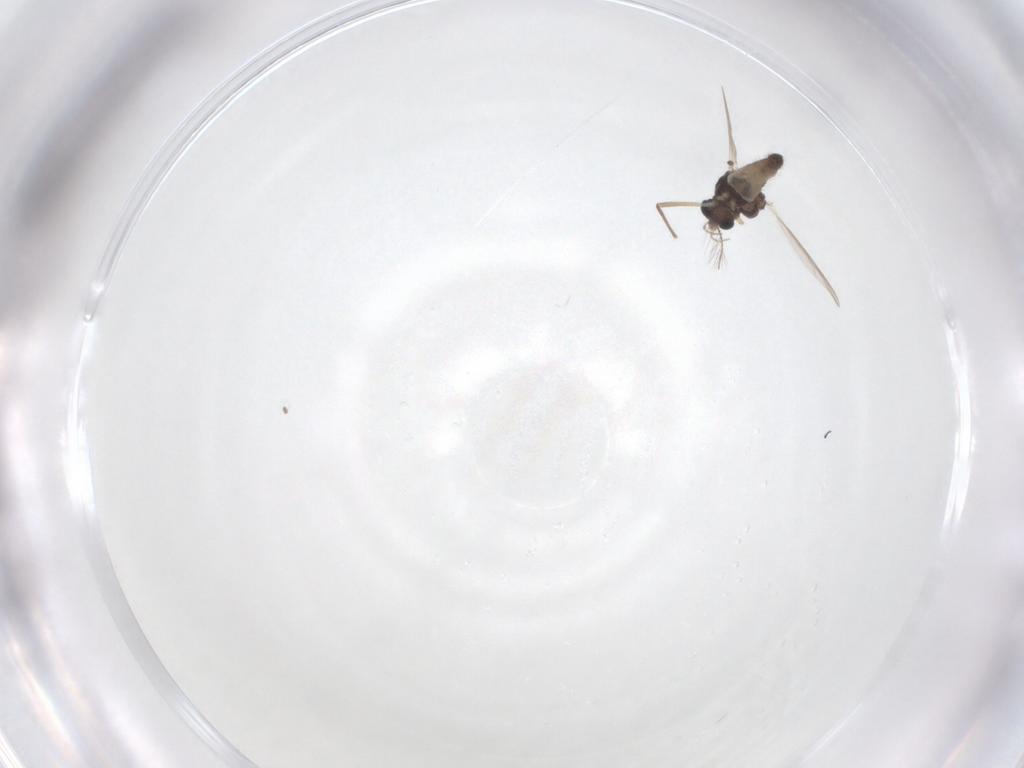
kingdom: Animalia
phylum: Arthropoda
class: Insecta
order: Diptera
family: Chironomidae
